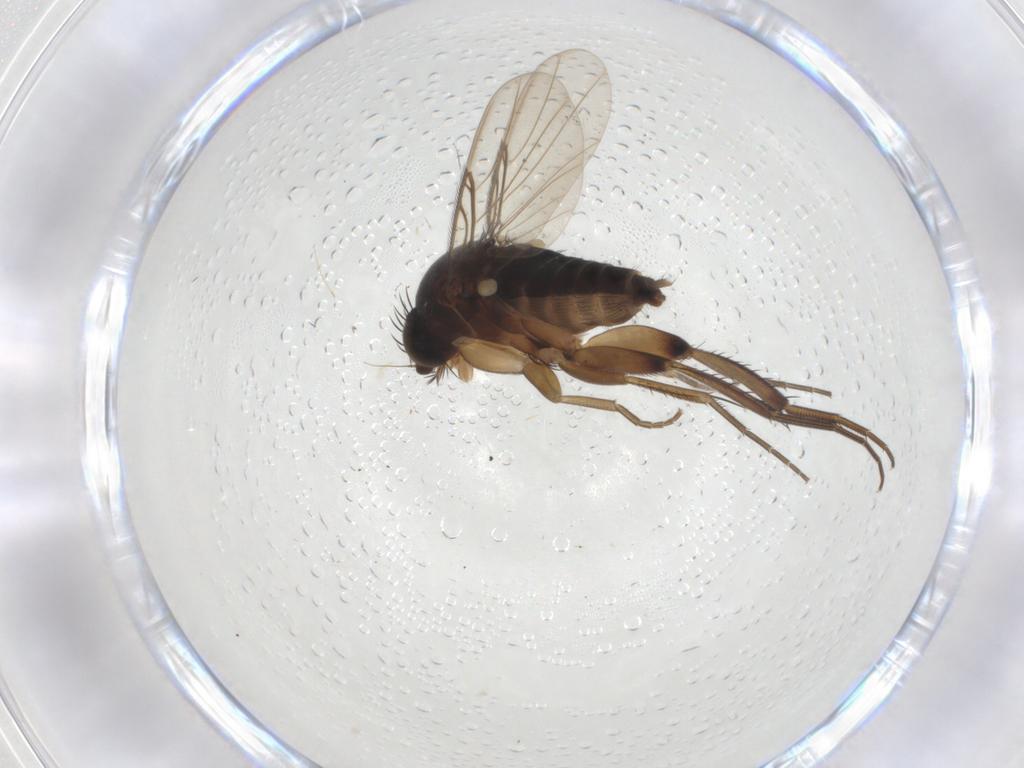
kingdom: Animalia
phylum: Arthropoda
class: Insecta
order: Diptera
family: Phoridae
